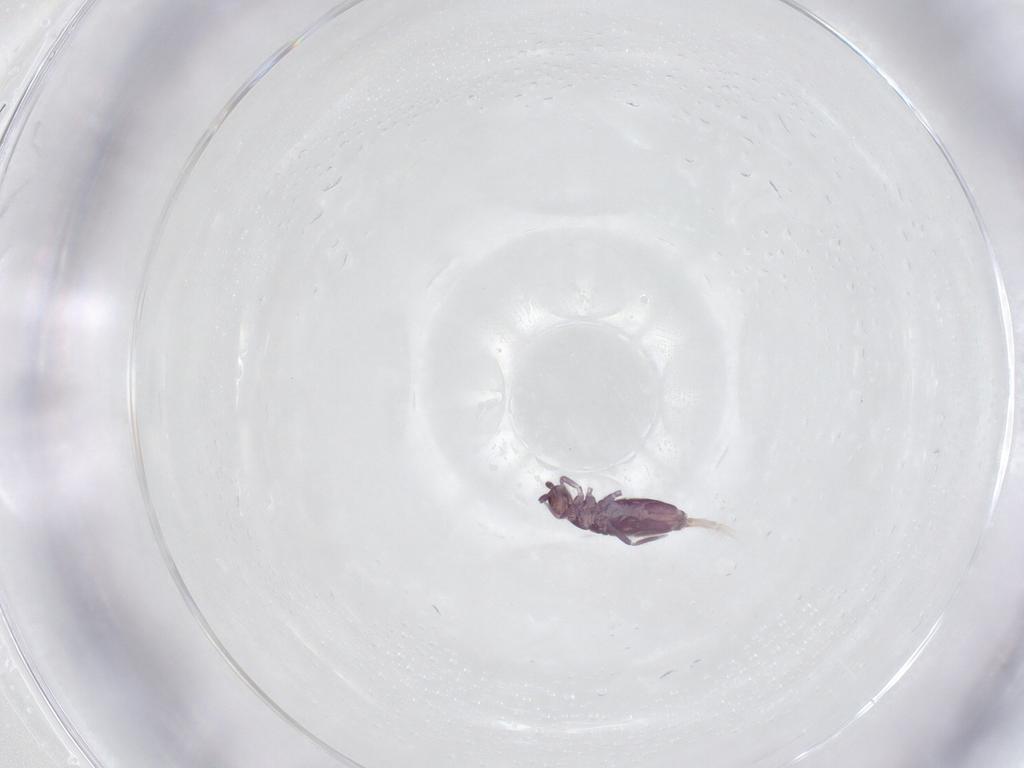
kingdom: Animalia
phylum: Arthropoda
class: Collembola
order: Entomobryomorpha
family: Entomobryidae
